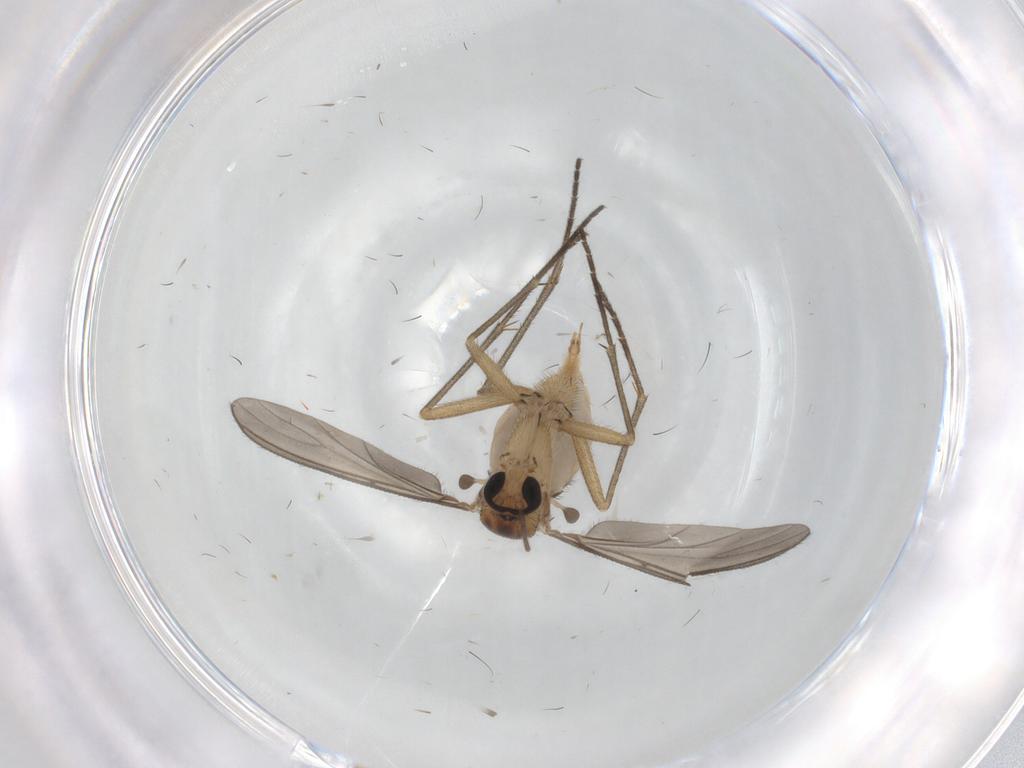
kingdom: Animalia
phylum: Arthropoda
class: Insecta
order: Diptera
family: Sciaridae
